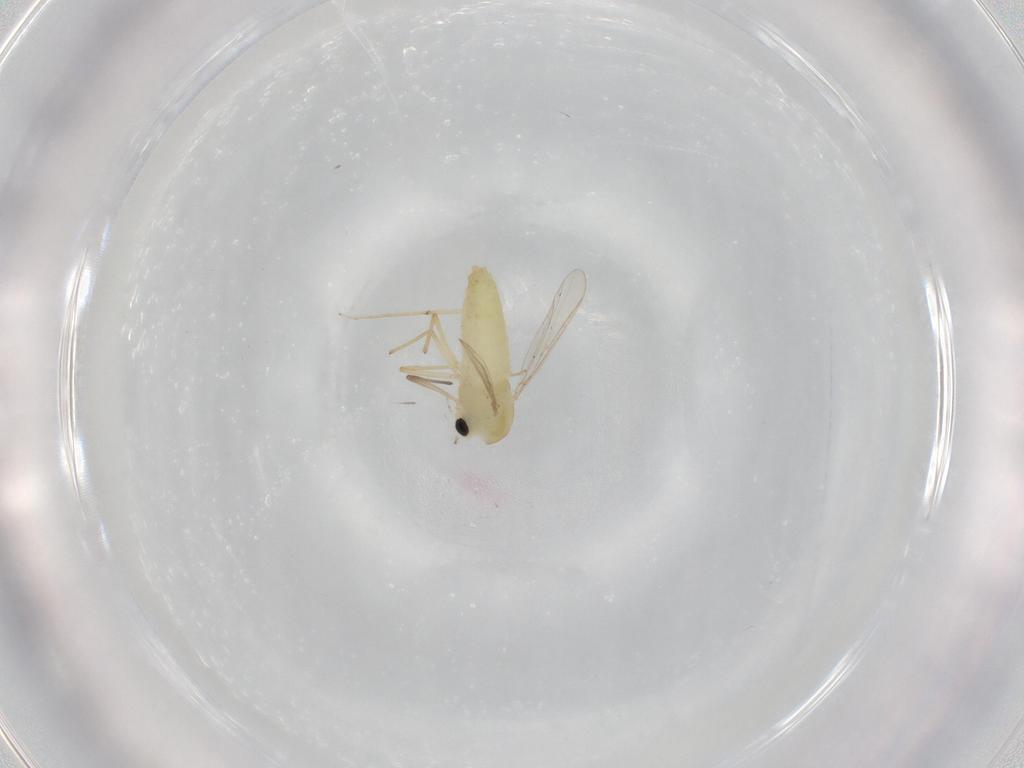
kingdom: Animalia
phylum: Arthropoda
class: Insecta
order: Diptera
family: Chironomidae
